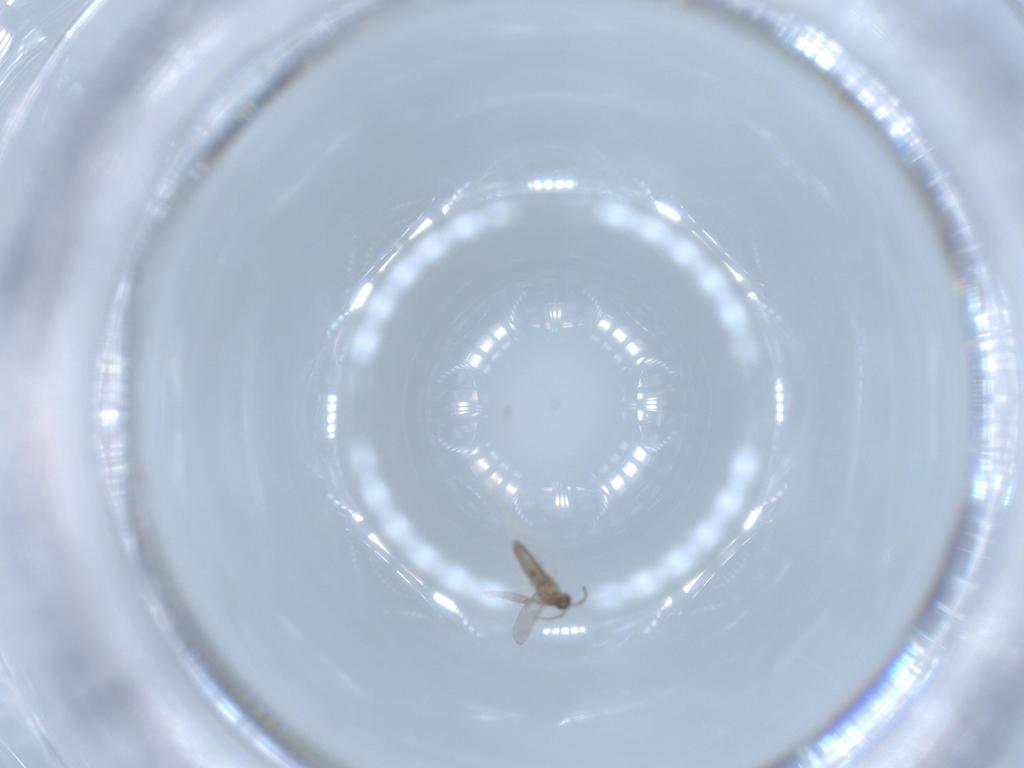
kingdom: Animalia
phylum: Arthropoda
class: Insecta
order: Diptera
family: Cecidomyiidae
